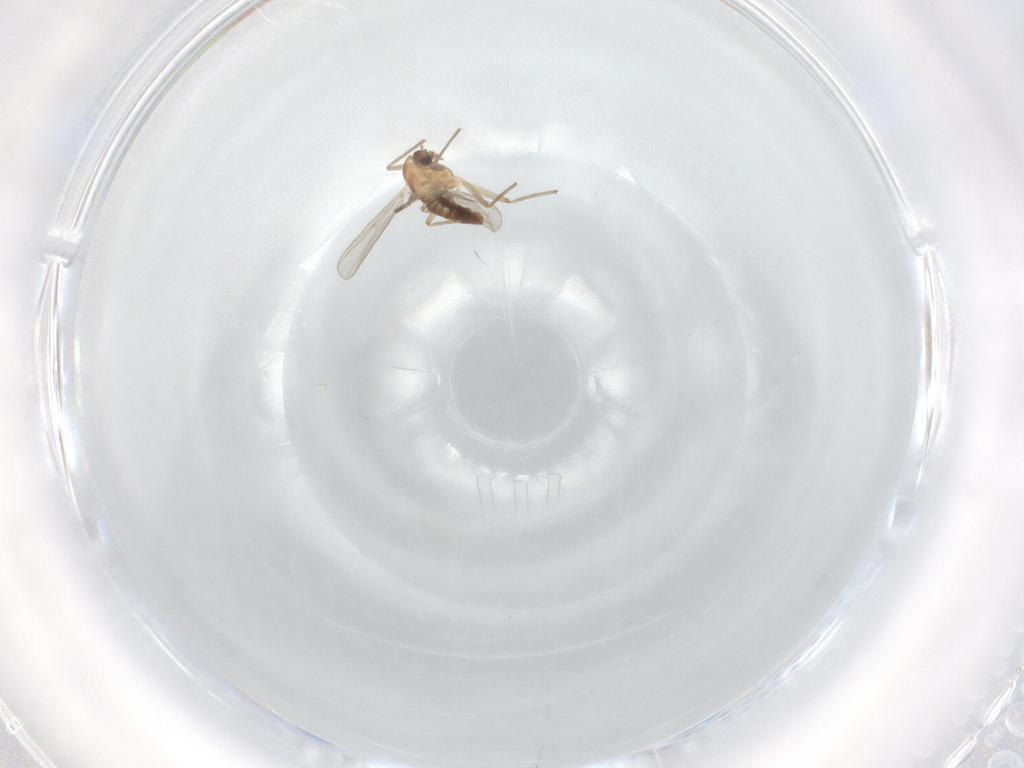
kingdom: Animalia
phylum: Arthropoda
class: Insecta
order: Diptera
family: Chironomidae
